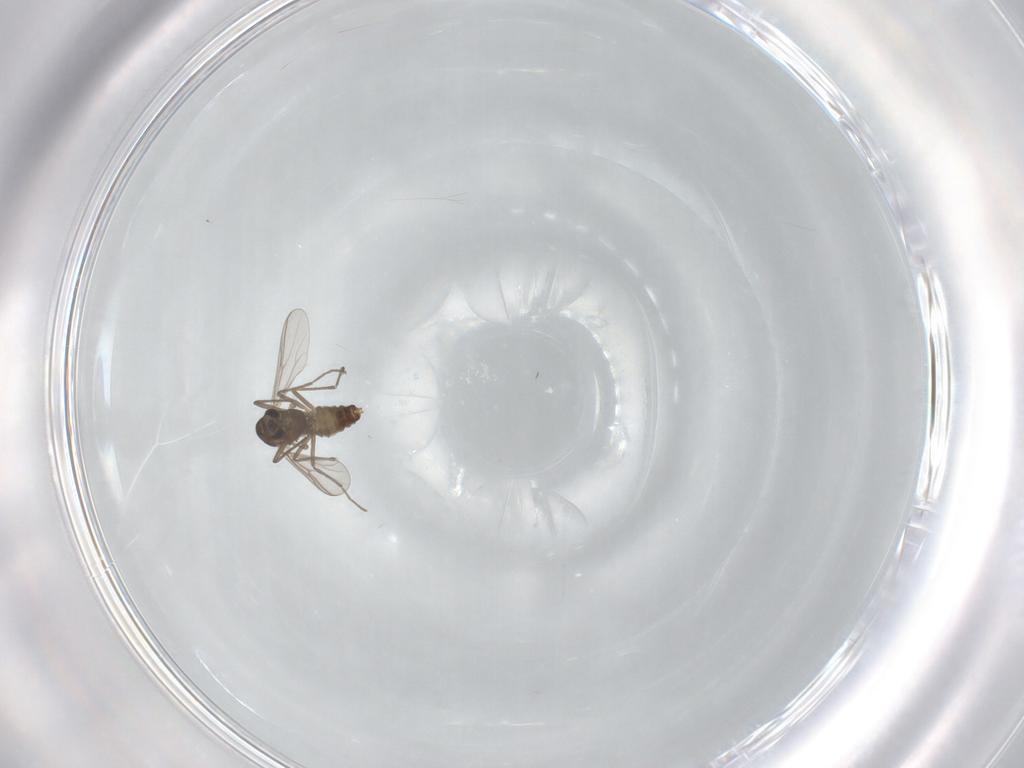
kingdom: Animalia
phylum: Arthropoda
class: Insecta
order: Diptera
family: Chironomidae
